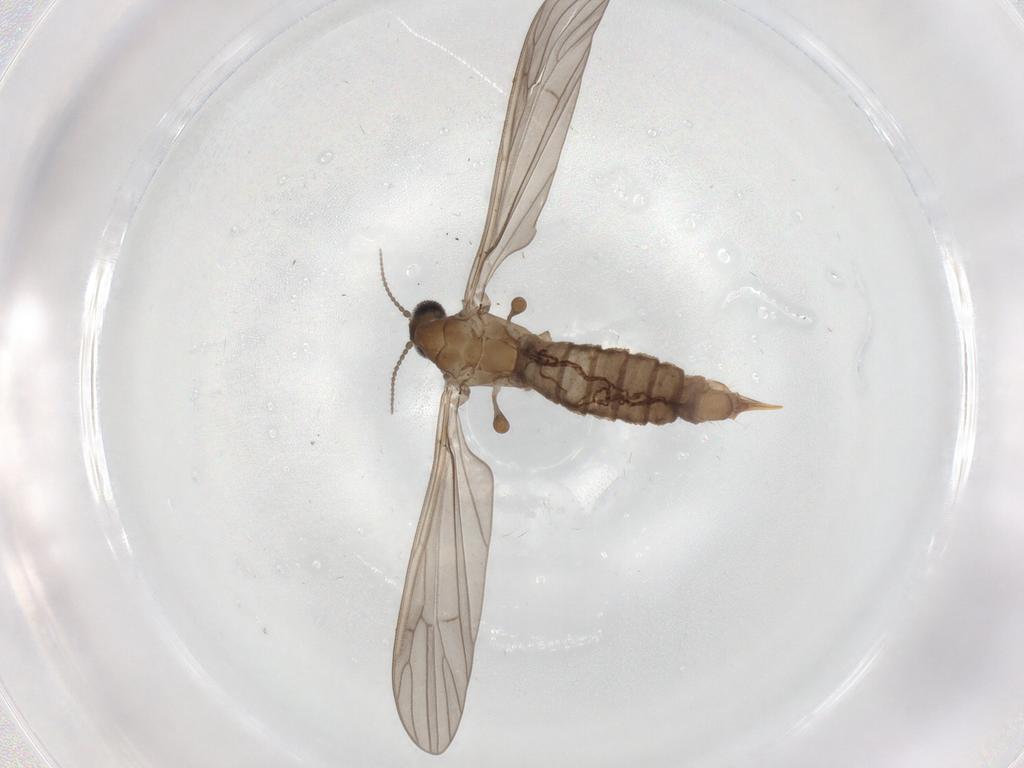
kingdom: Animalia
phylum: Arthropoda
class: Insecta
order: Diptera
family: Limoniidae
